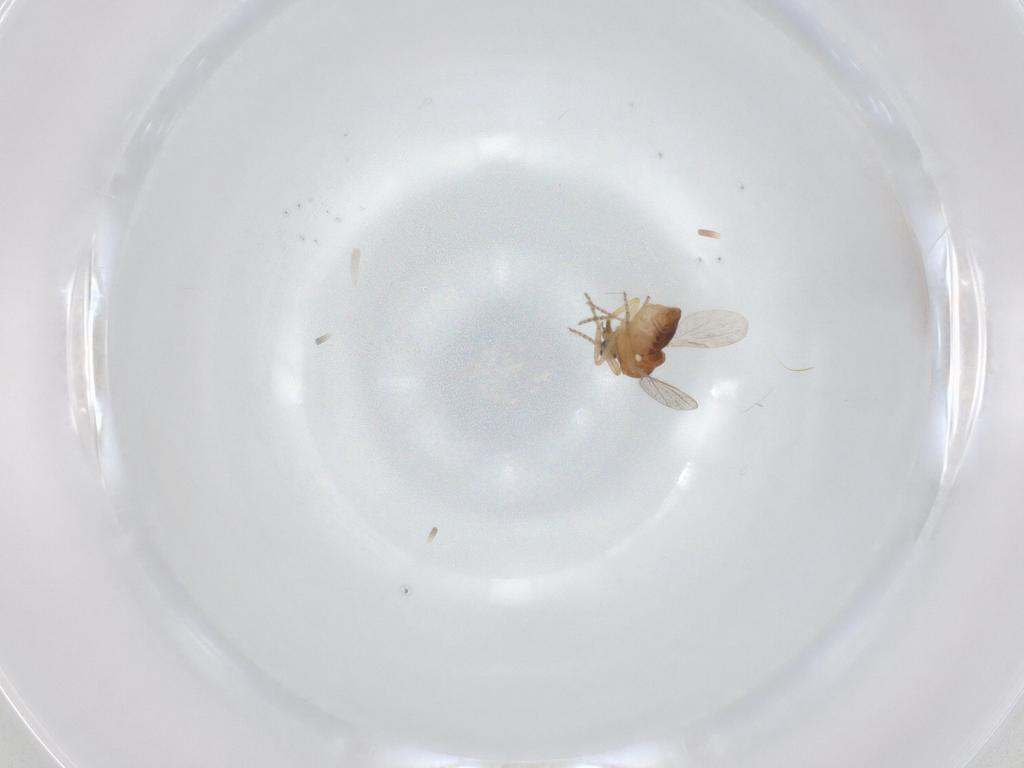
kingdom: Animalia
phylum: Arthropoda
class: Insecta
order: Diptera
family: Ceratopogonidae
